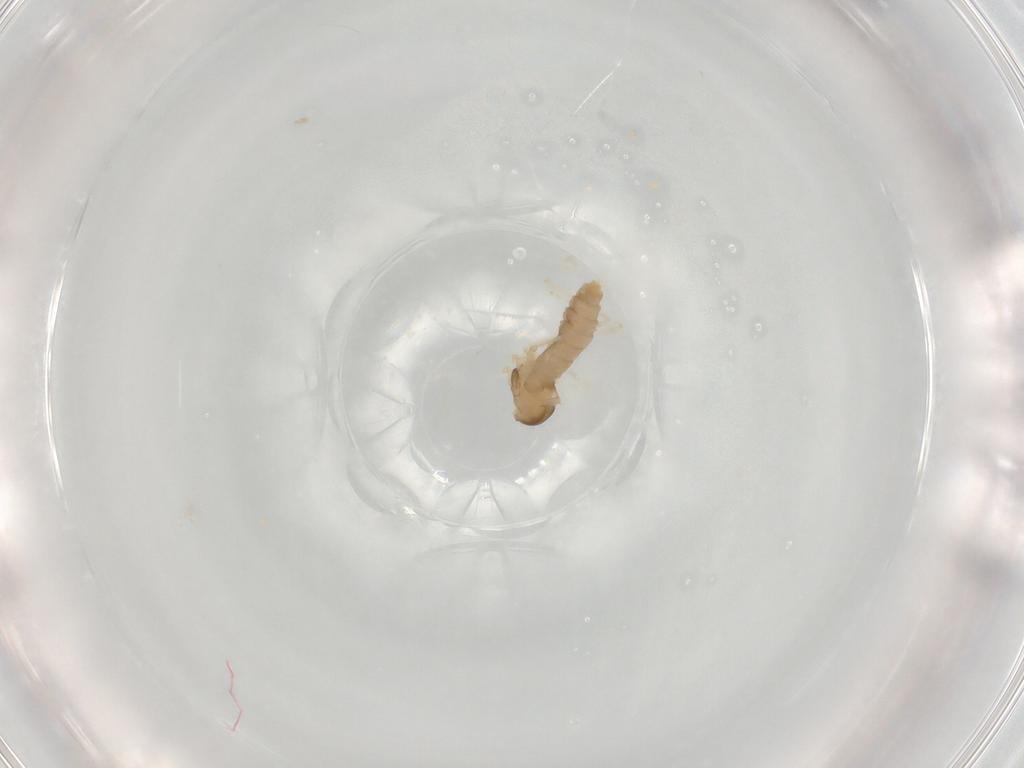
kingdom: Animalia
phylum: Arthropoda
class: Insecta
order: Diptera
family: Cecidomyiidae
